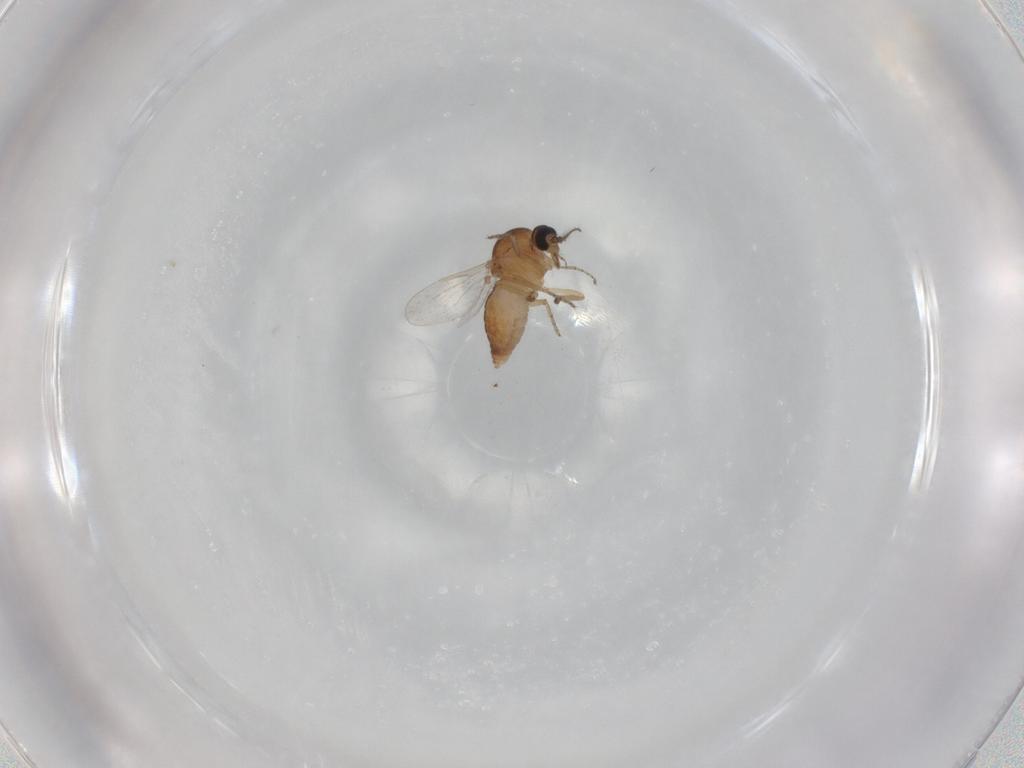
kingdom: Animalia
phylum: Arthropoda
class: Insecta
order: Diptera
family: Ceratopogonidae
